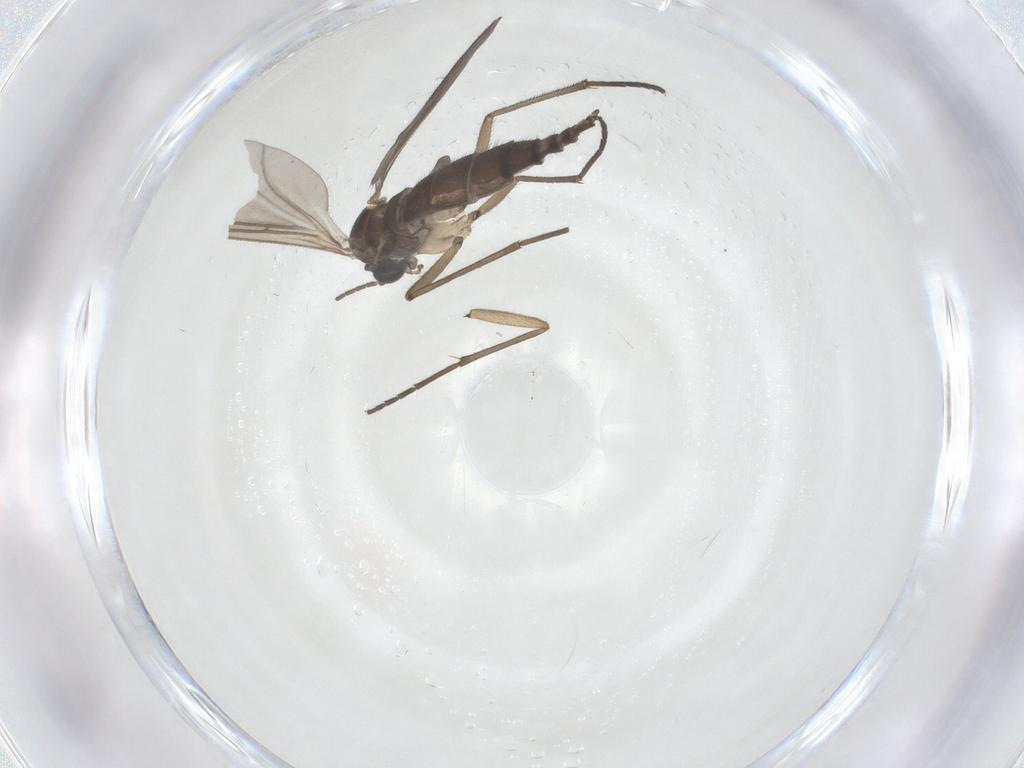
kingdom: Animalia
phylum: Arthropoda
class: Insecta
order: Diptera
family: Sciaridae
